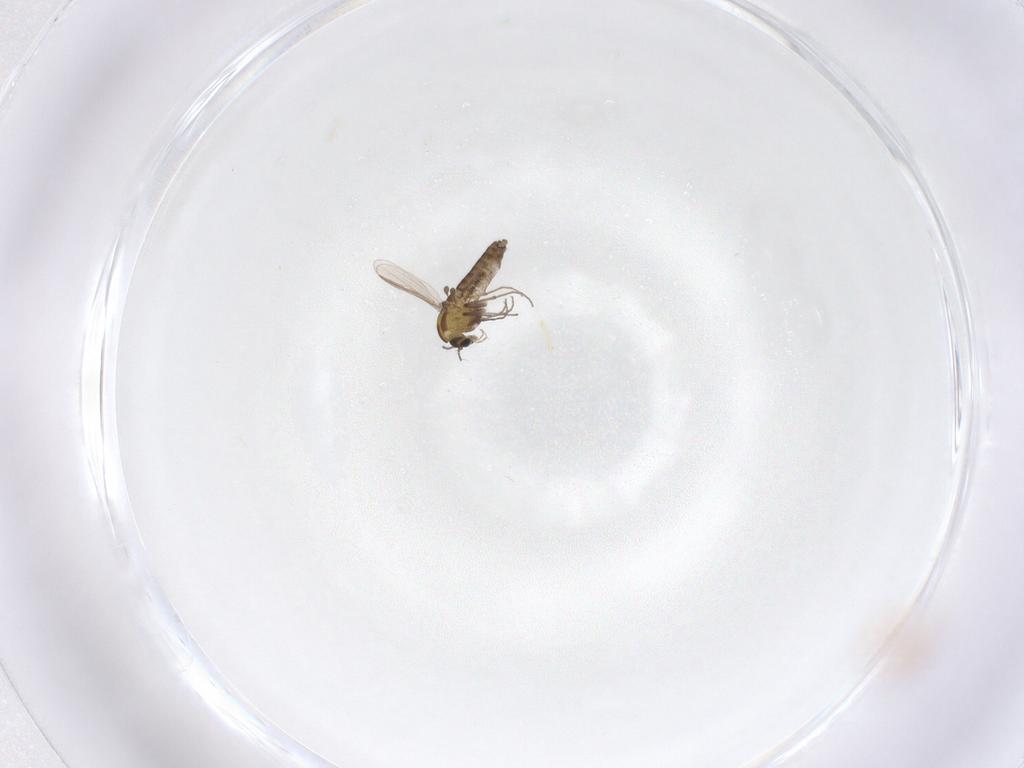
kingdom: Animalia
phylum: Arthropoda
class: Insecta
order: Diptera
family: Chironomidae
